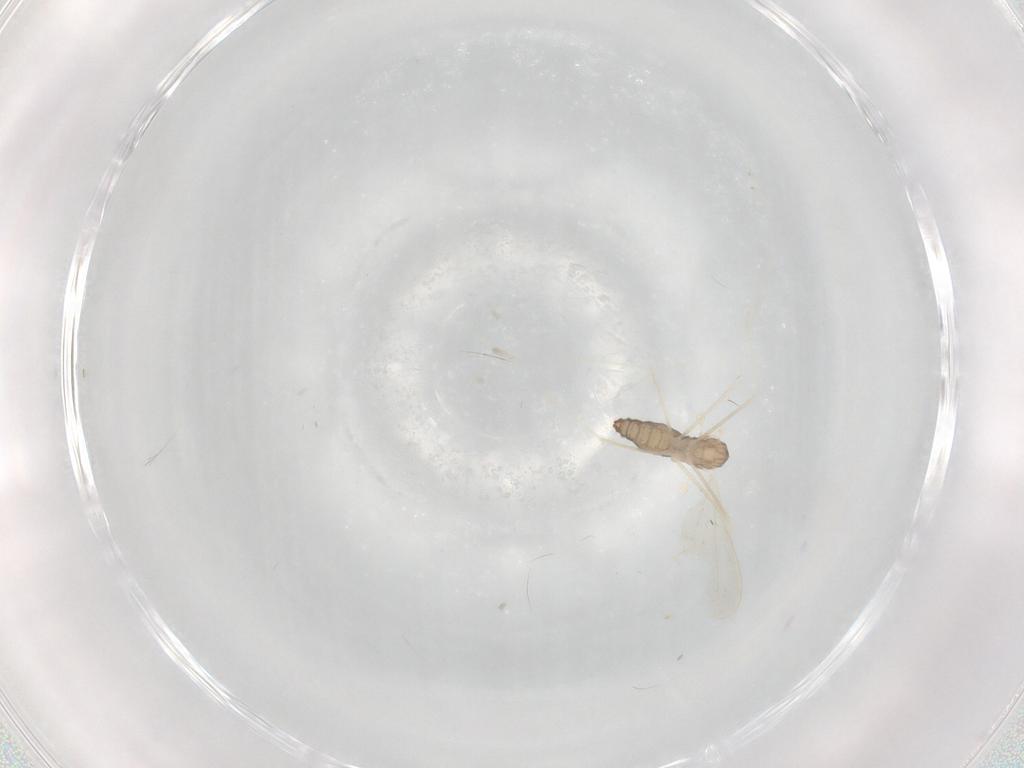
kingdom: Animalia
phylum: Arthropoda
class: Insecta
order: Diptera
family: Cecidomyiidae
